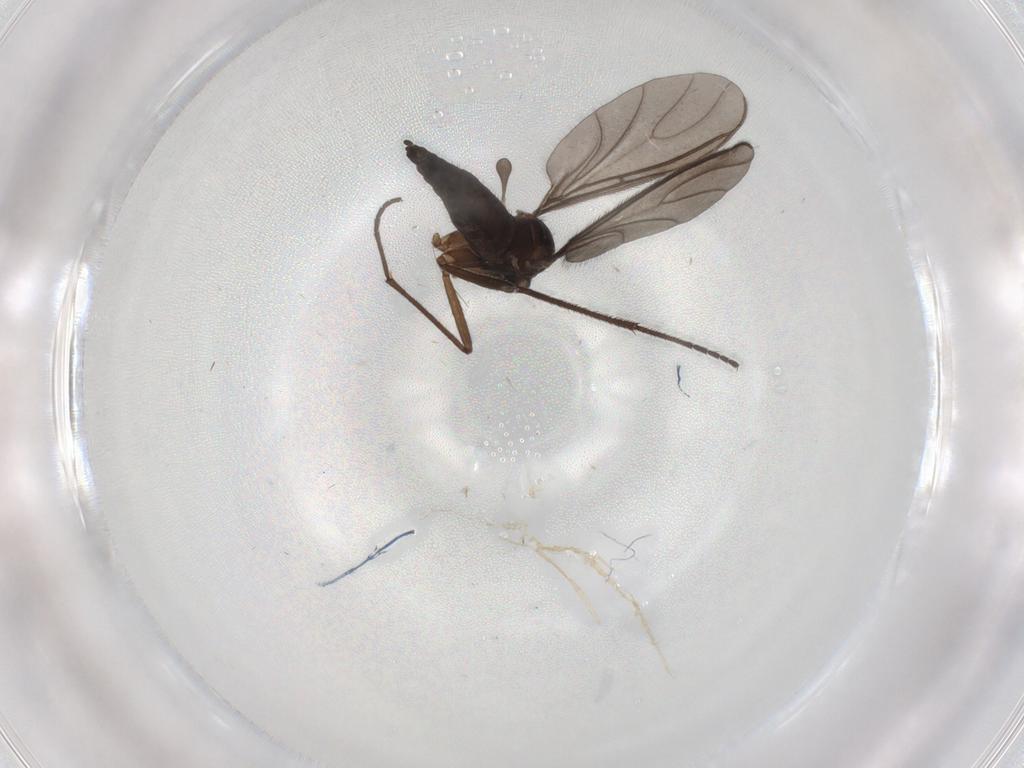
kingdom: Animalia
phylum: Arthropoda
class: Insecta
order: Diptera
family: Sciaridae
